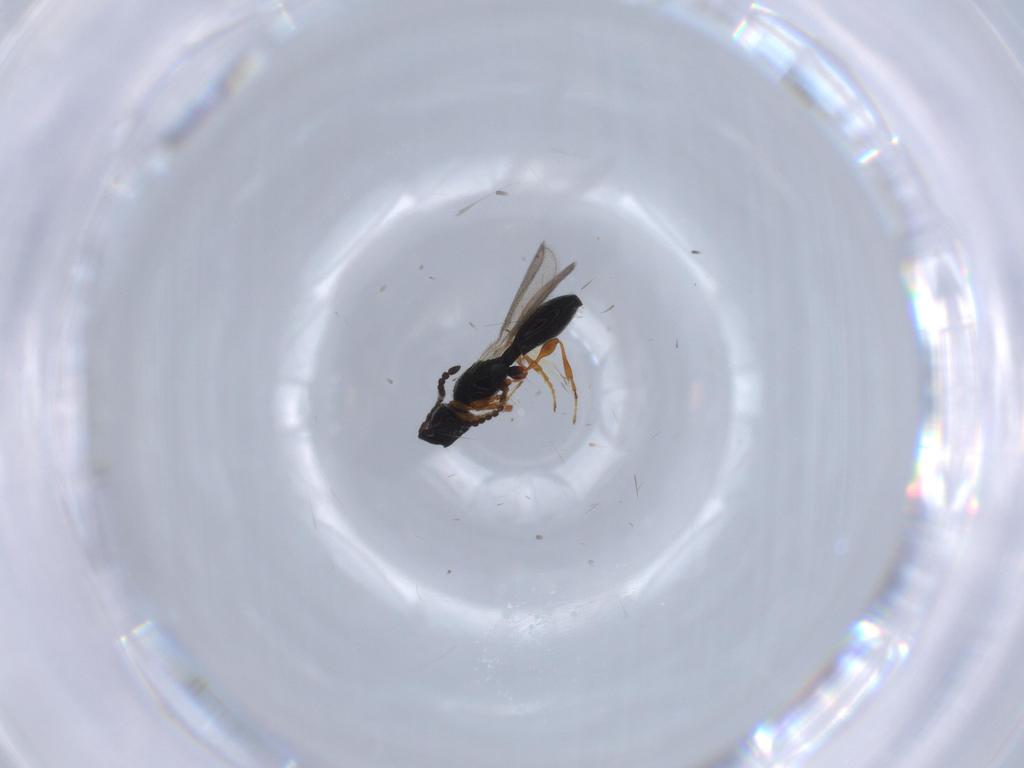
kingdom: Animalia
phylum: Arthropoda
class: Insecta
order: Hymenoptera
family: Diapriidae
